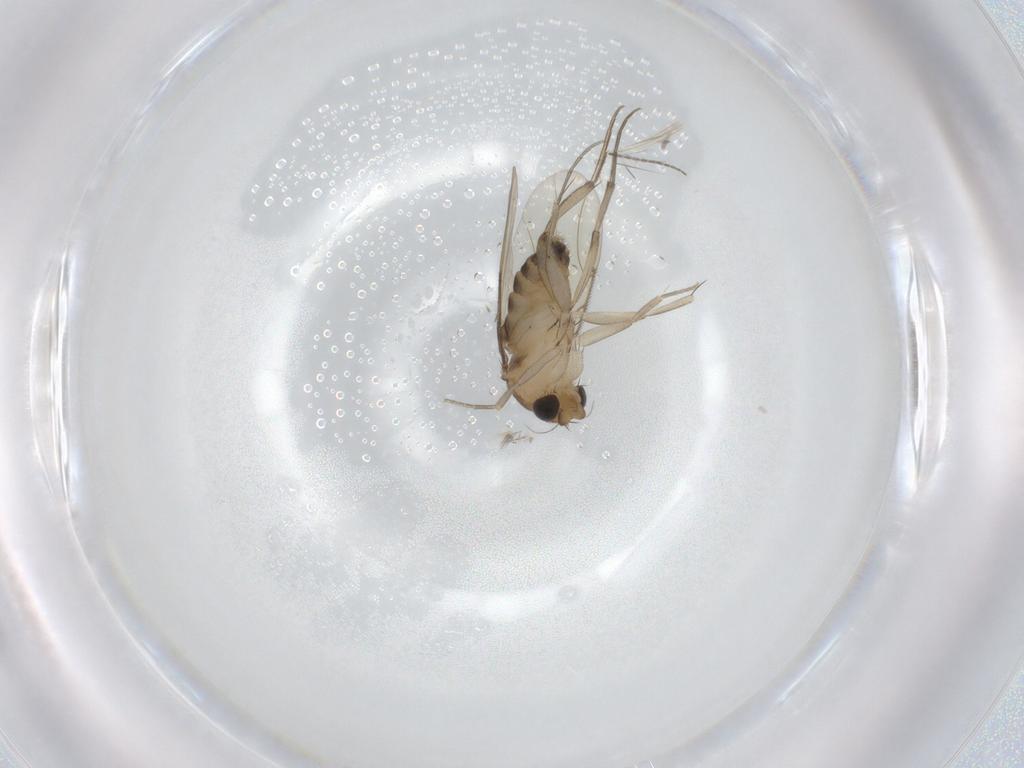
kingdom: Animalia
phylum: Arthropoda
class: Insecta
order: Diptera
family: Phoridae
